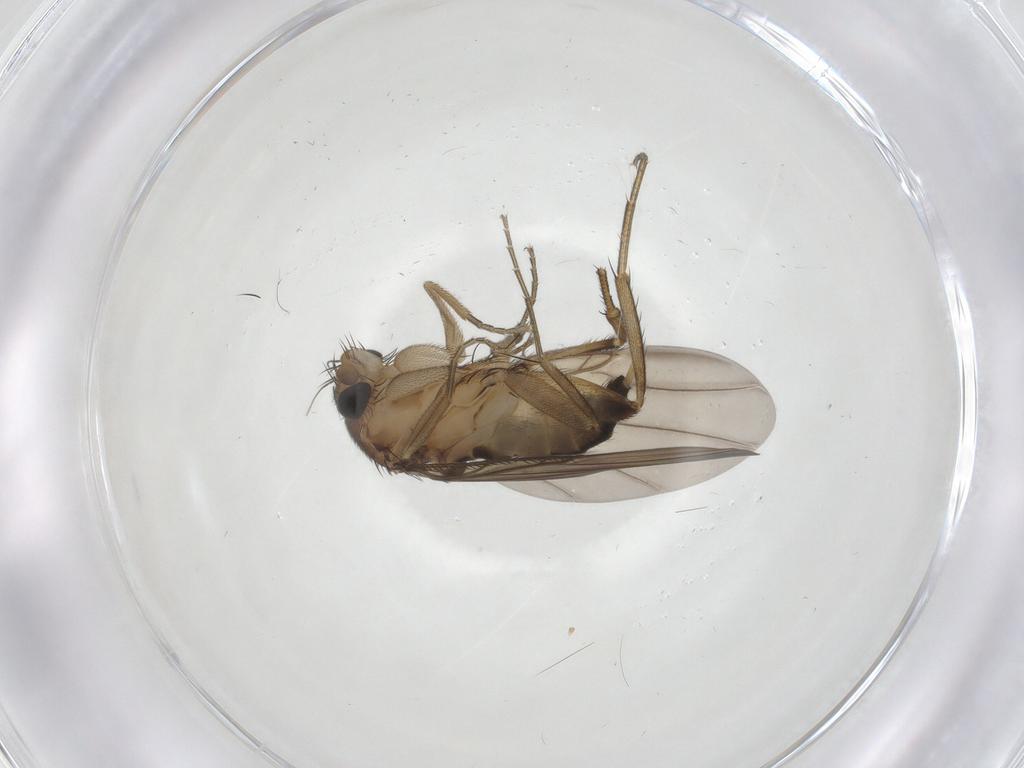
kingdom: Animalia
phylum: Arthropoda
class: Insecta
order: Diptera
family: Phoridae
